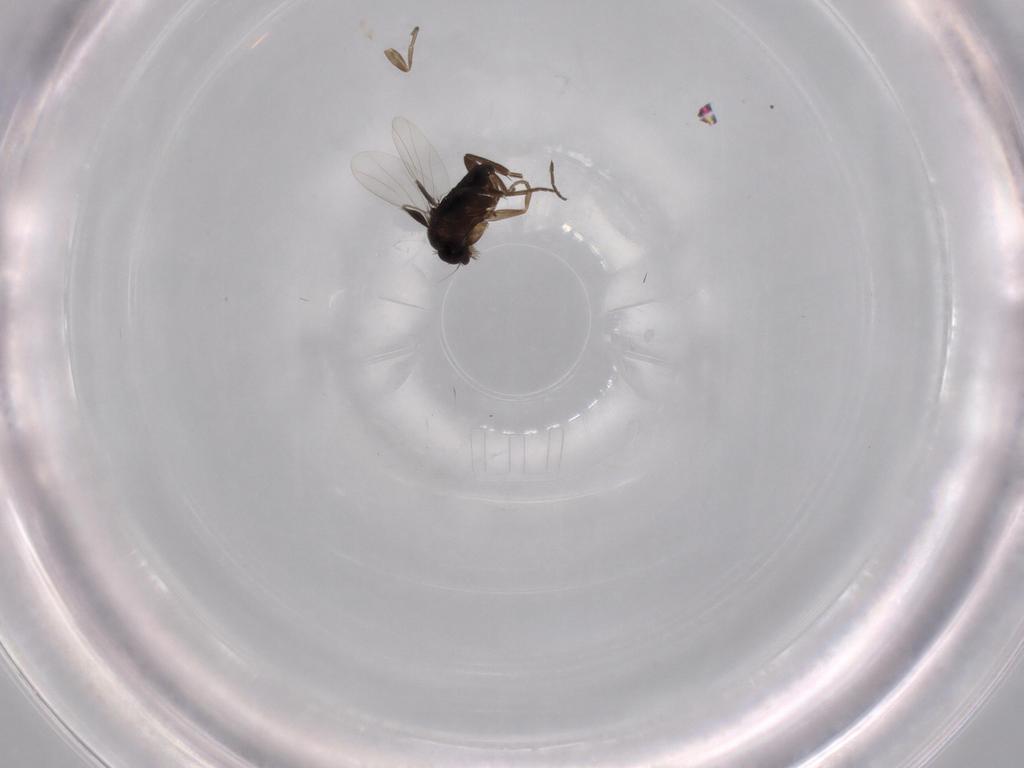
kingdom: Animalia
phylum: Arthropoda
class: Insecta
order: Diptera
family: Phoridae
